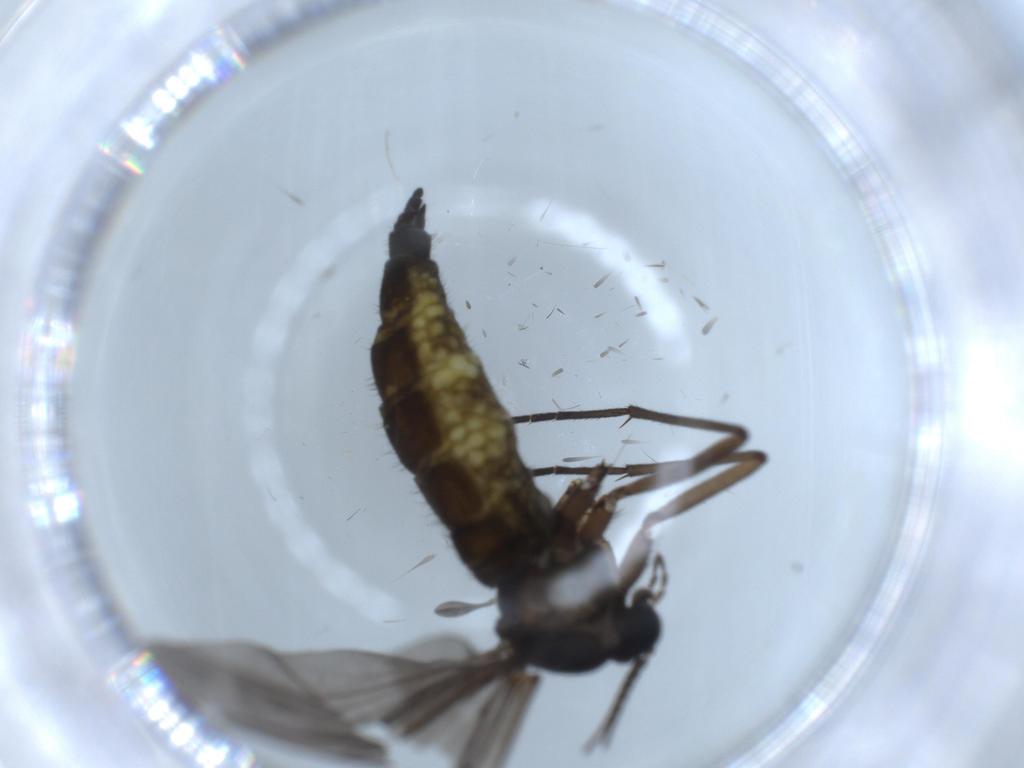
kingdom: Animalia
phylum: Arthropoda
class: Insecta
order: Diptera
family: Sciaridae
